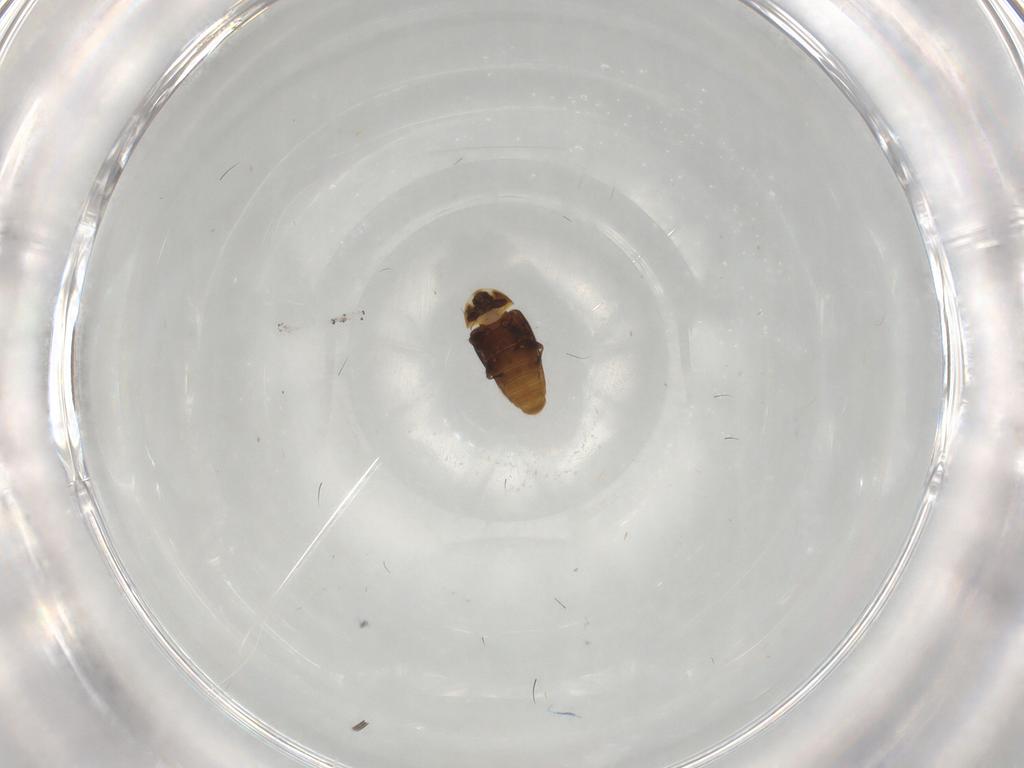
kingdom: Animalia
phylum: Arthropoda
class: Insecta
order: Coleoptera
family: Corylophidae
